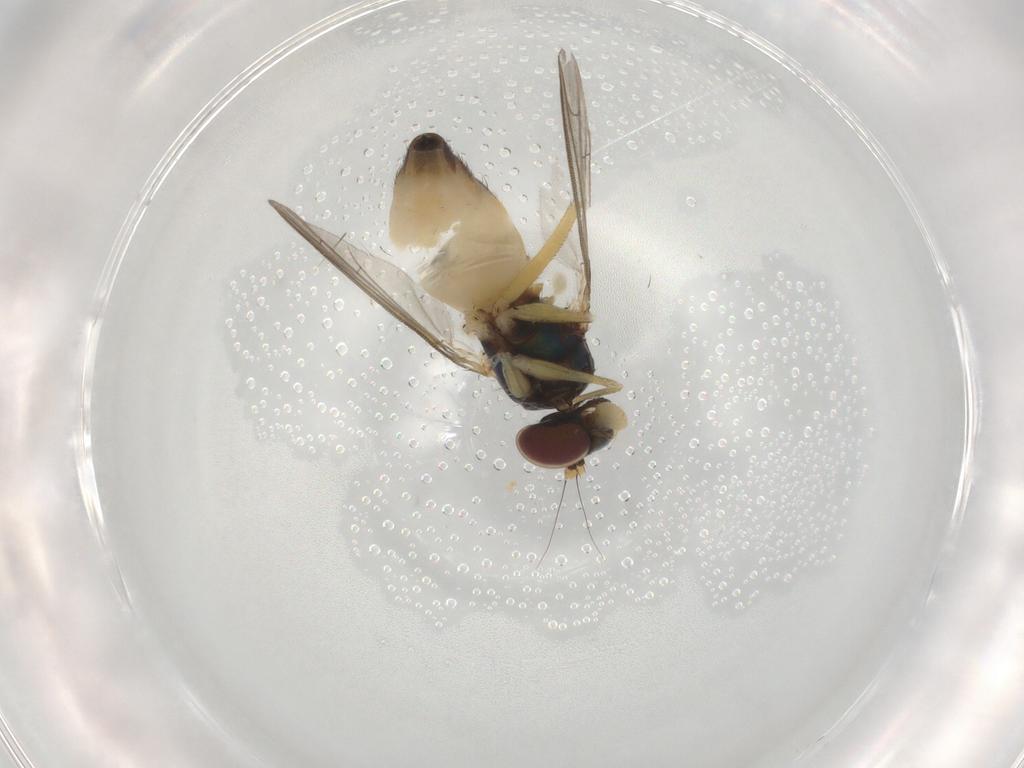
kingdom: Animalia
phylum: Arthropoda
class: Insecta
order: Diptera
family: Dolichopodidae
